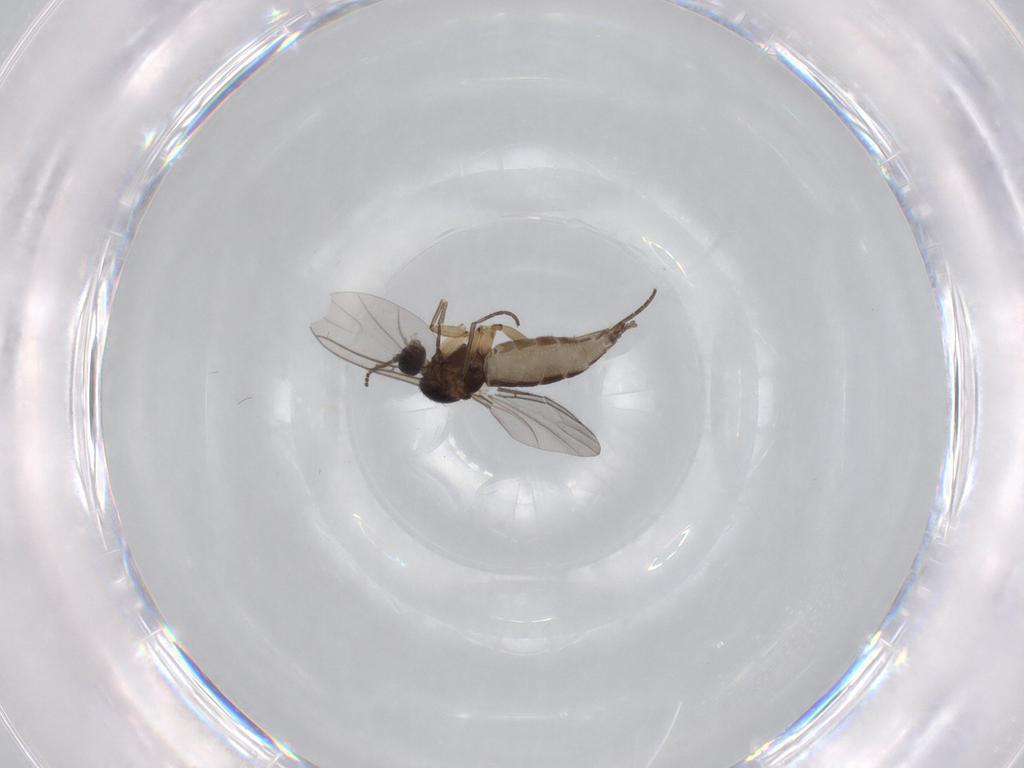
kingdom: Animalia
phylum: Arthropoda
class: Insecta
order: Diptera
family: Sciaridae
